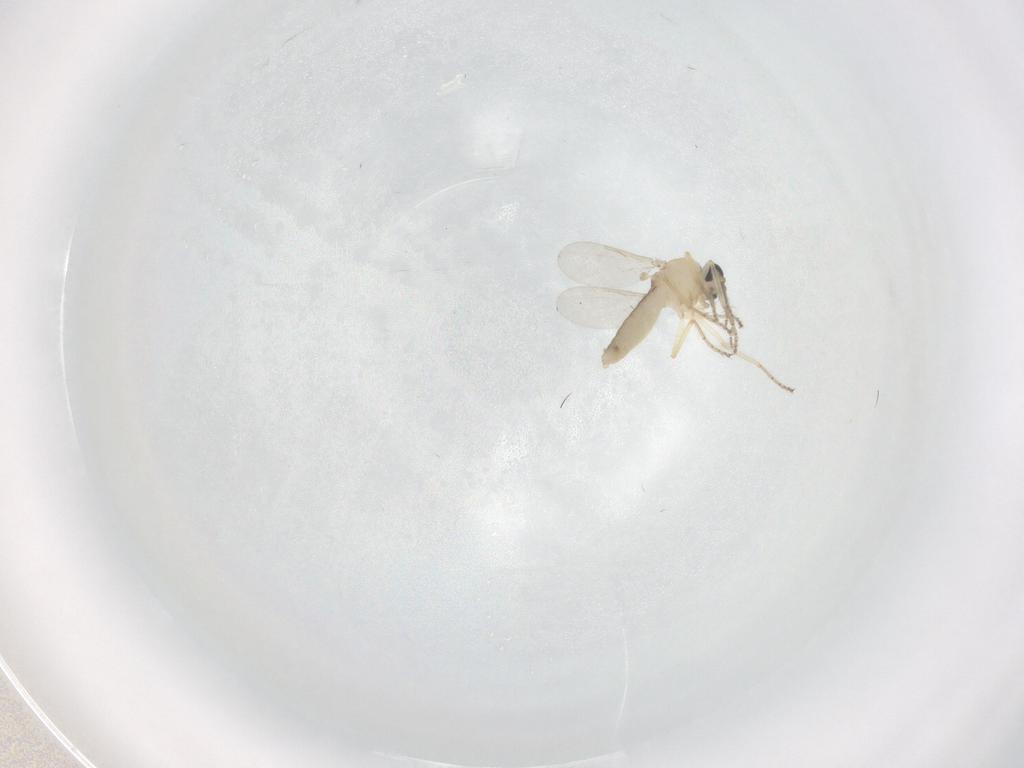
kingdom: Animalia
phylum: Arthropoda
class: Insecta
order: Diptera
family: Ceratopogonidae
